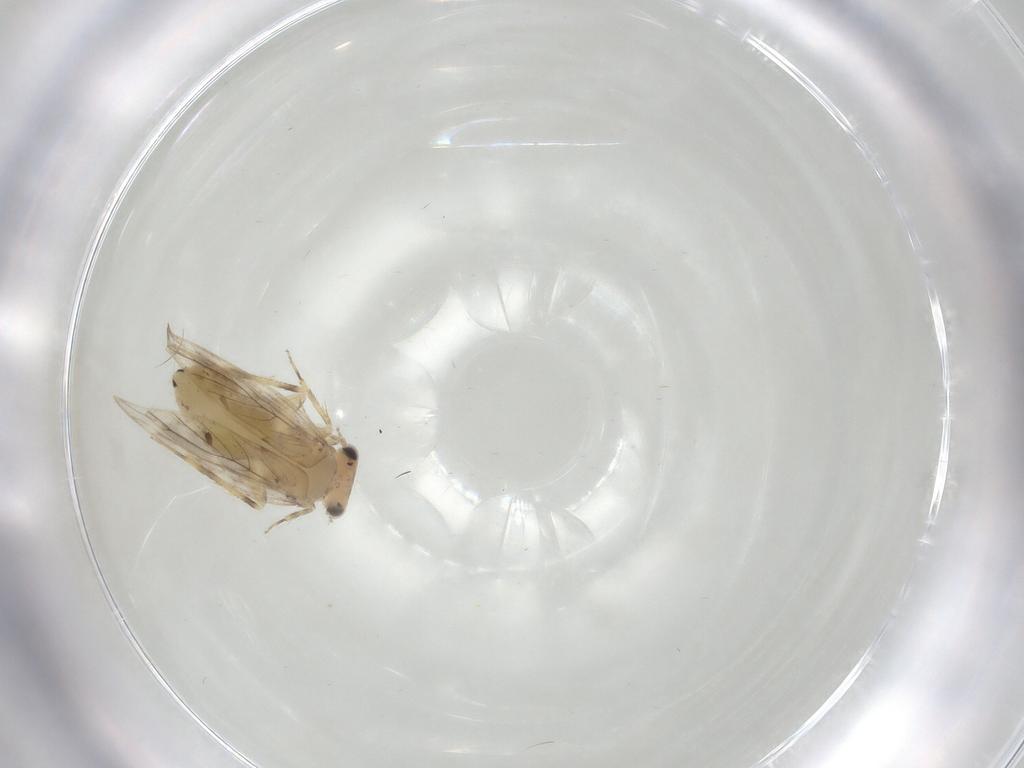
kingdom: Animalia
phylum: Arthropoda
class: Insecta
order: Psocodea
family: Lepidopsocidae
